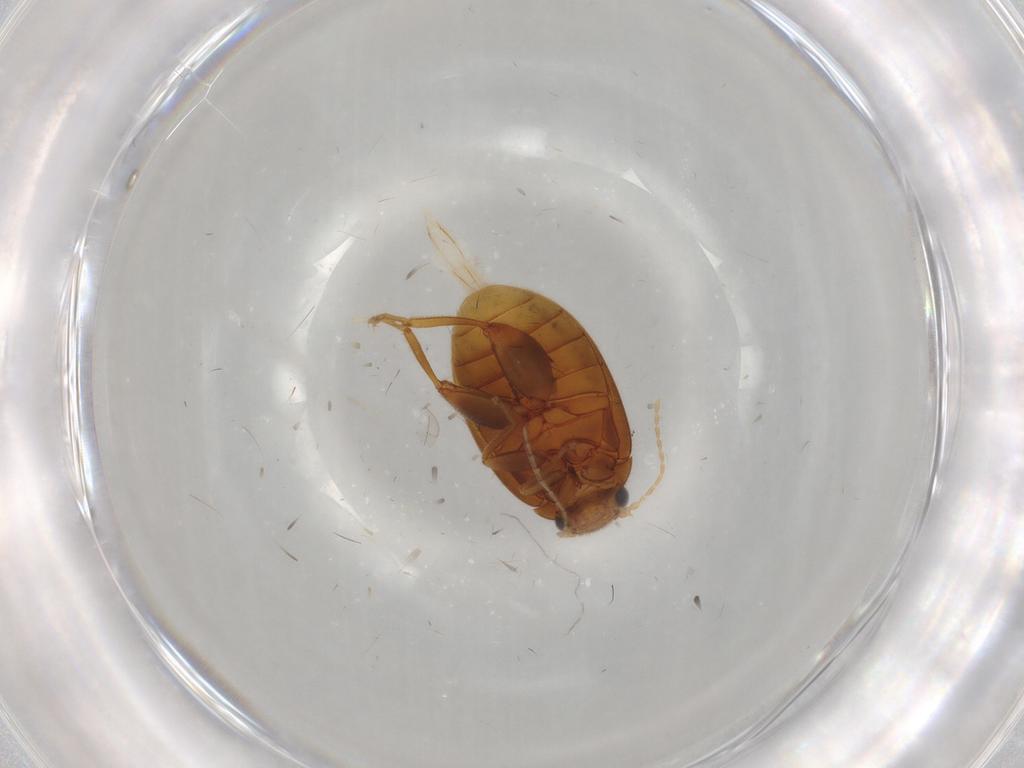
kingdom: Animalia
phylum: Arthropoda
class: Insecta
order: Coleoptera
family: Scirtidae
